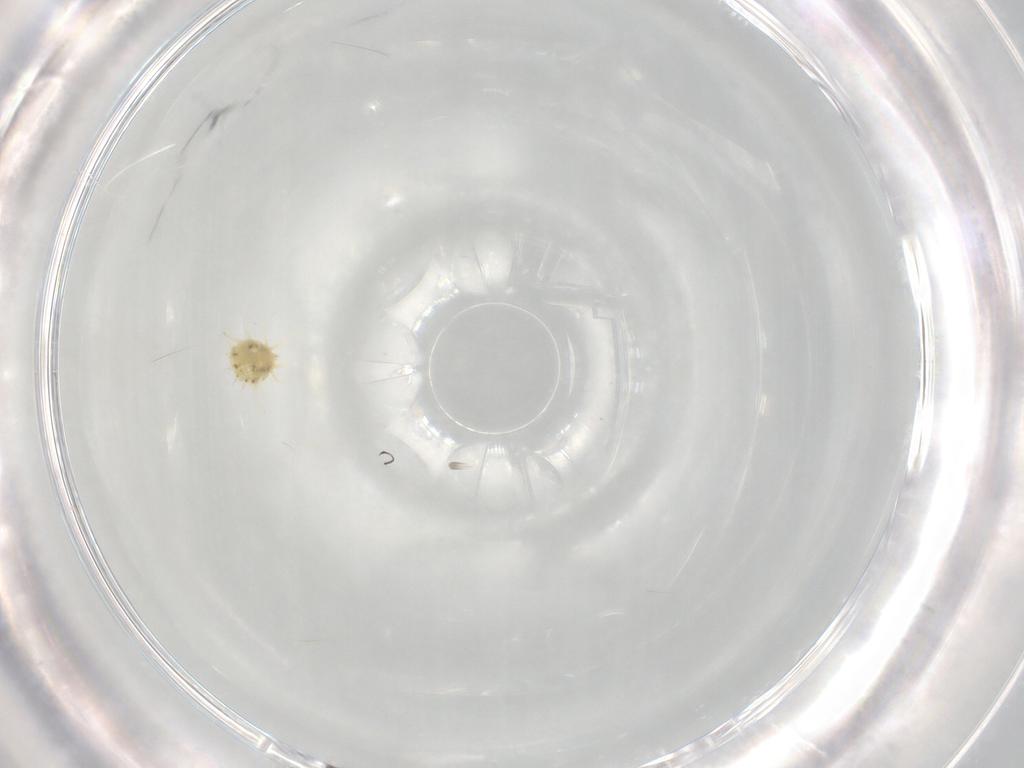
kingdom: Animalia
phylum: Arthropoda
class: Arachnida
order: Trombidiformes
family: Tetranychidae
